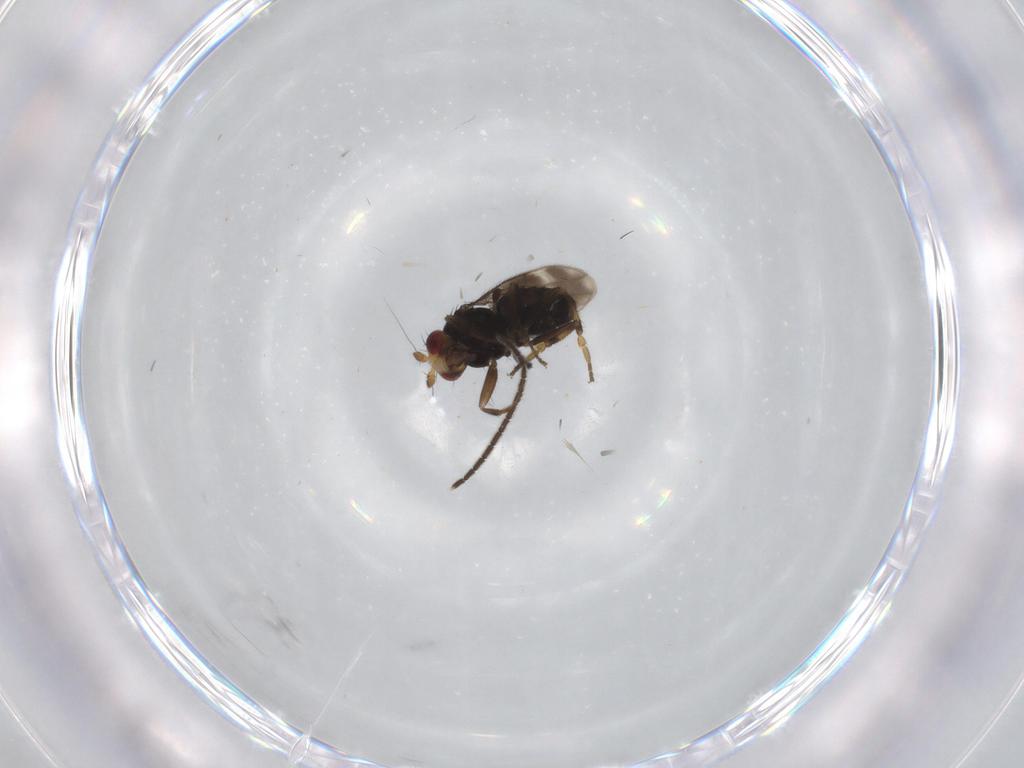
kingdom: Animalia
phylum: Arthropoda
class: Insecta
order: Diptera
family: Sphaeroceridae
